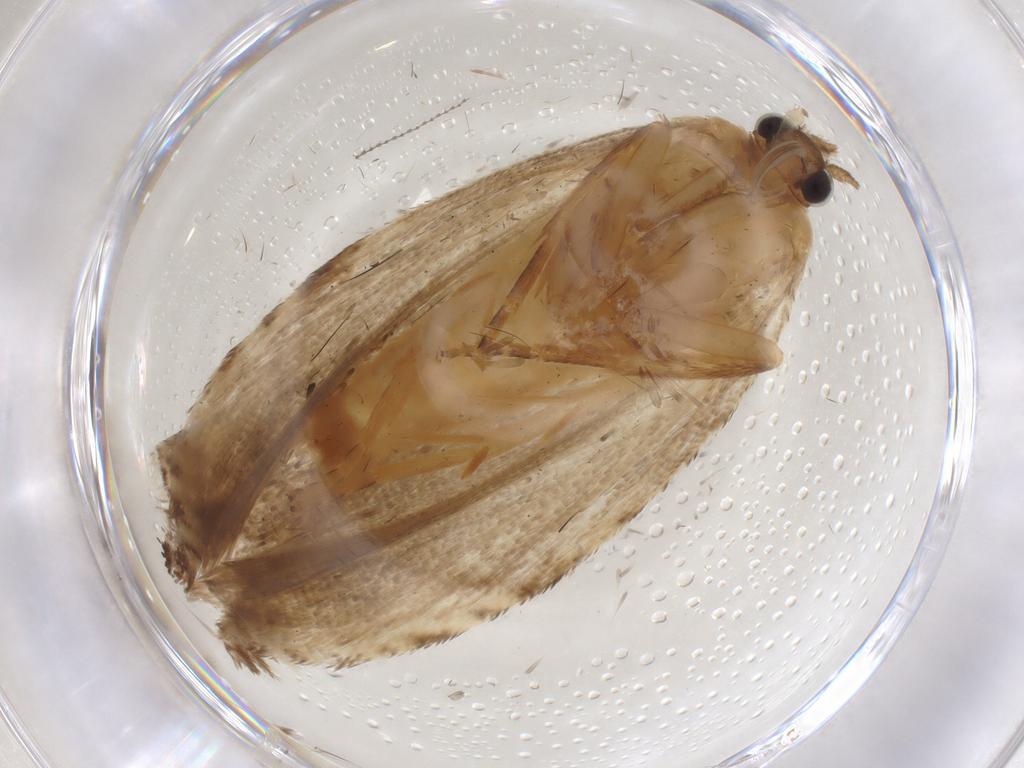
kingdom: Animalia
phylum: Arthropoda
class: Insecta
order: Lepidoptera
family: Tortricidae
